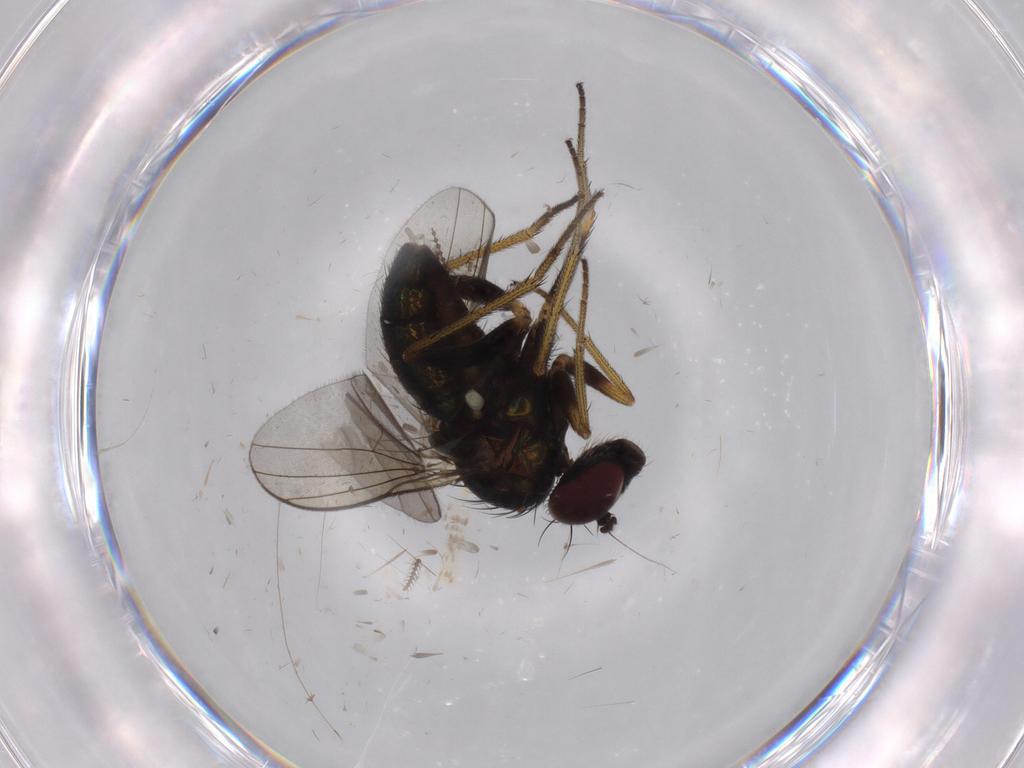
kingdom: Animalia
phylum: Arthropoda
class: Insecta
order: Diptera
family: Mycetophilidae
